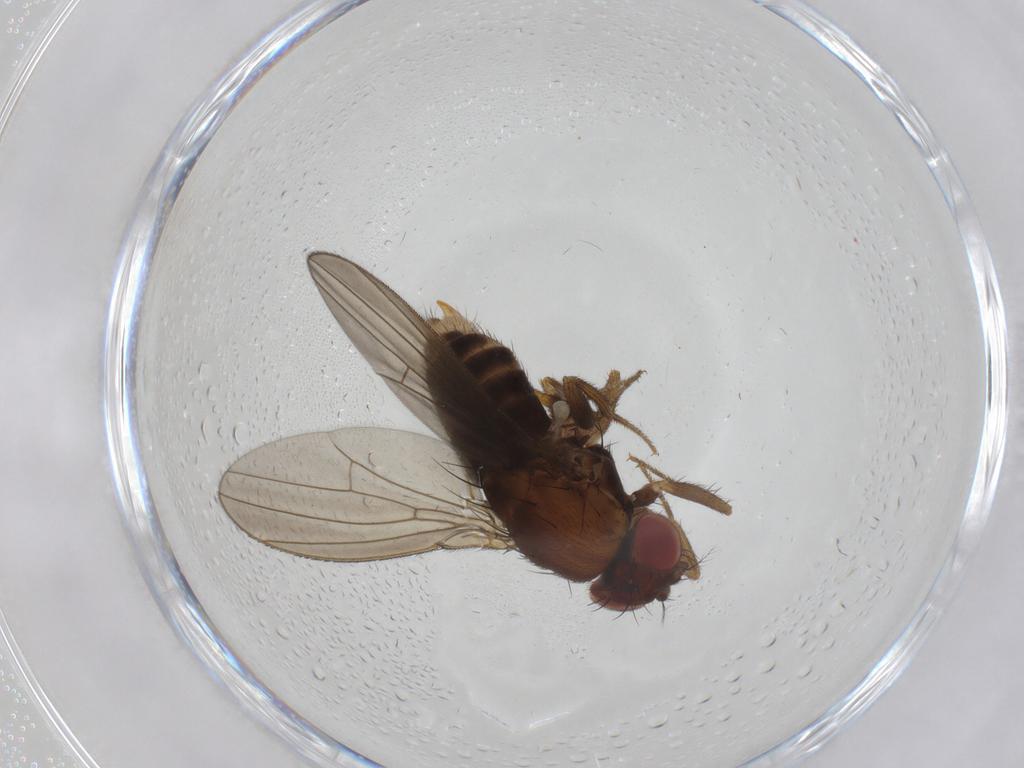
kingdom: Animalia
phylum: Arthropoda
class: Insecta
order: Diptera
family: Drosophilidae
